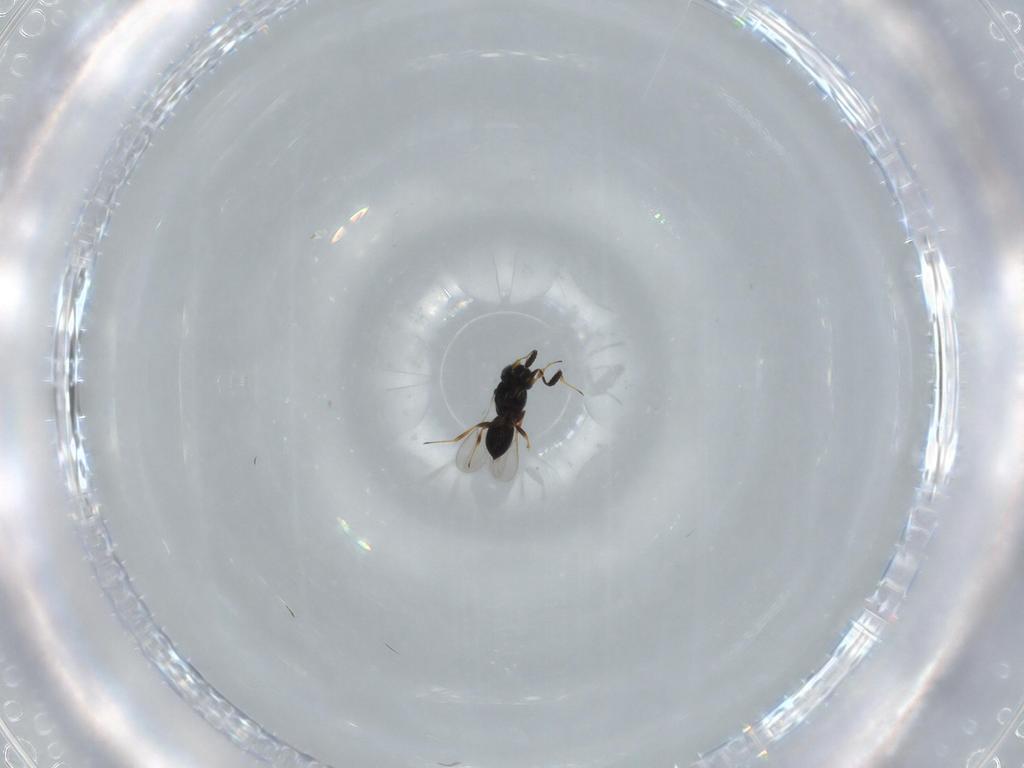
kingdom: Animalia
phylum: Arthropoda
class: Insecta
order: Hymenoptera
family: Scelionidae
